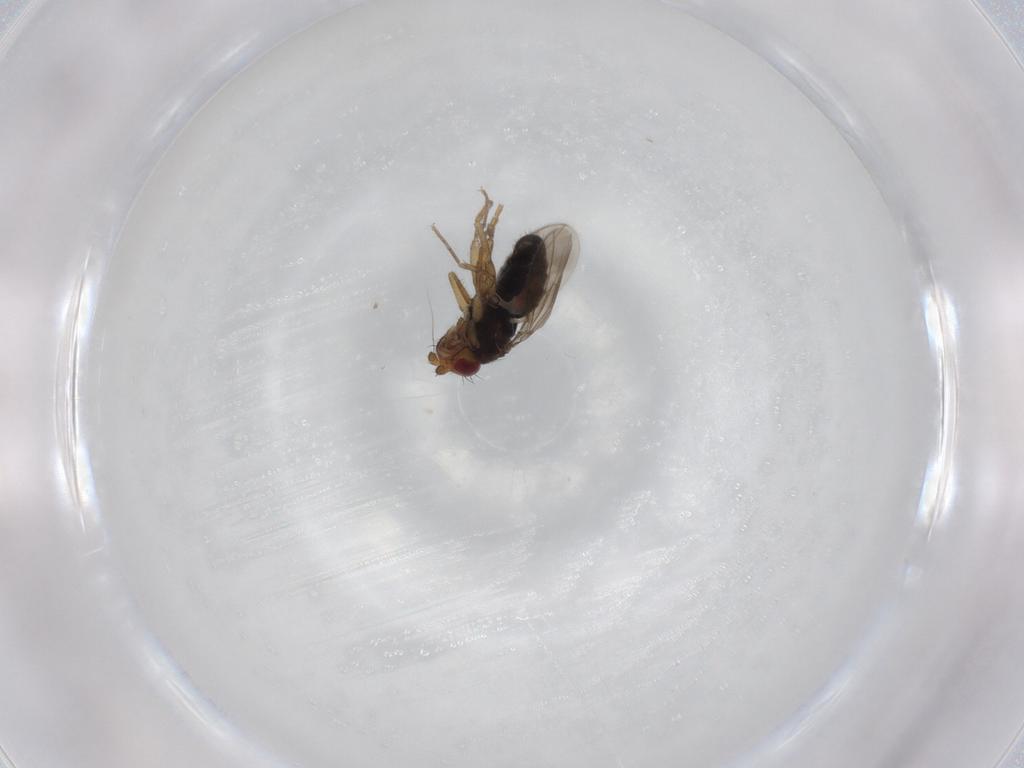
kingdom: Animalia
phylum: Arthropoda
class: Insecta
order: Diptera
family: Sphaeroceridae
